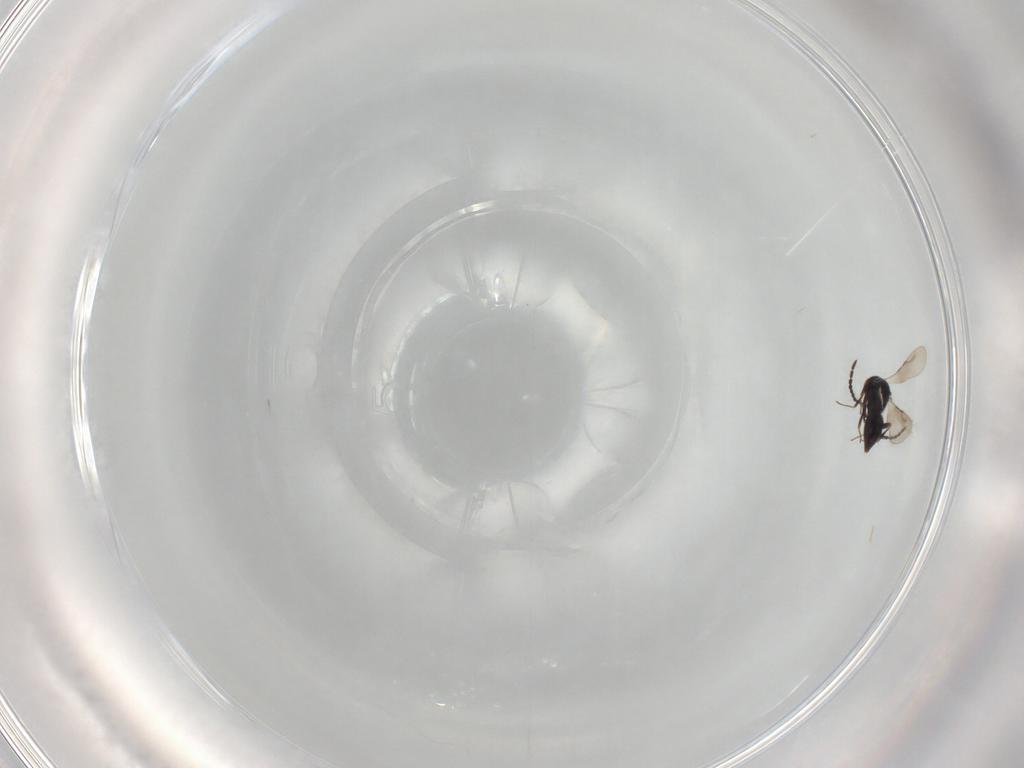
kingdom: Animalia
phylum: Arthropoda
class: Insecta
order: Hymenoptera
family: Ceraphronidae
